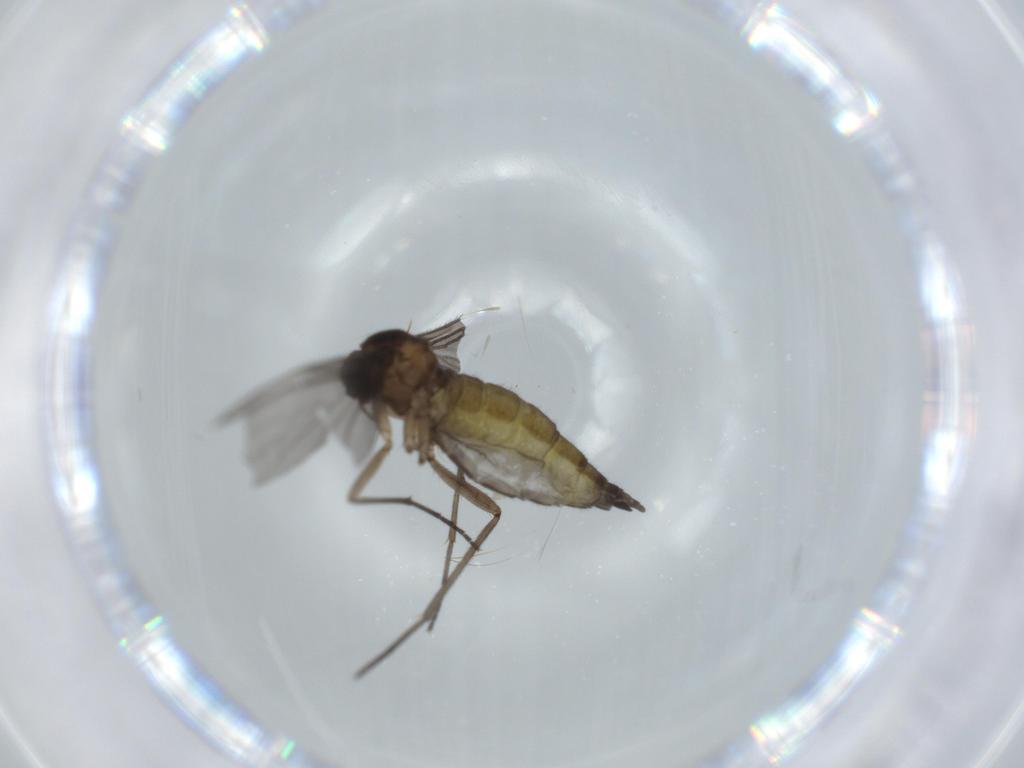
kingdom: Animalia
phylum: Arthropoda
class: Insecta
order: Diptera
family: Sciaridae
